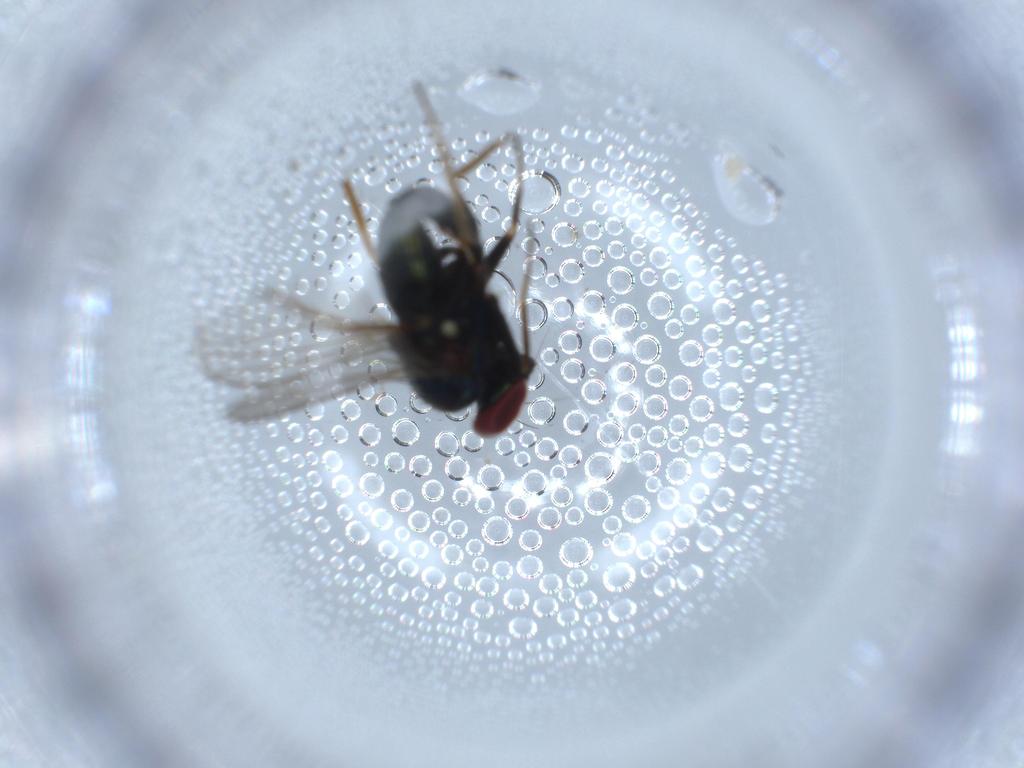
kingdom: Animalia
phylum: Arthropoda
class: Insecta
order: Diptera
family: Dolichopodidae
